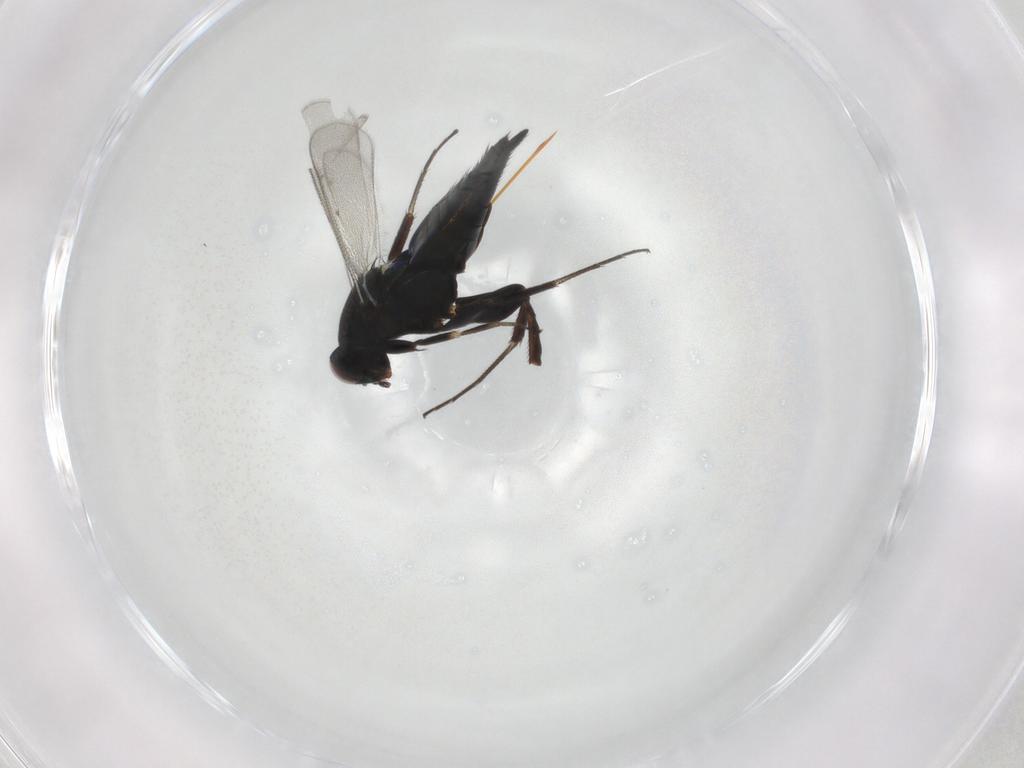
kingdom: Animalia
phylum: Arthropoda
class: Insecta
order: Hymenoptera
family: Eulophidae
